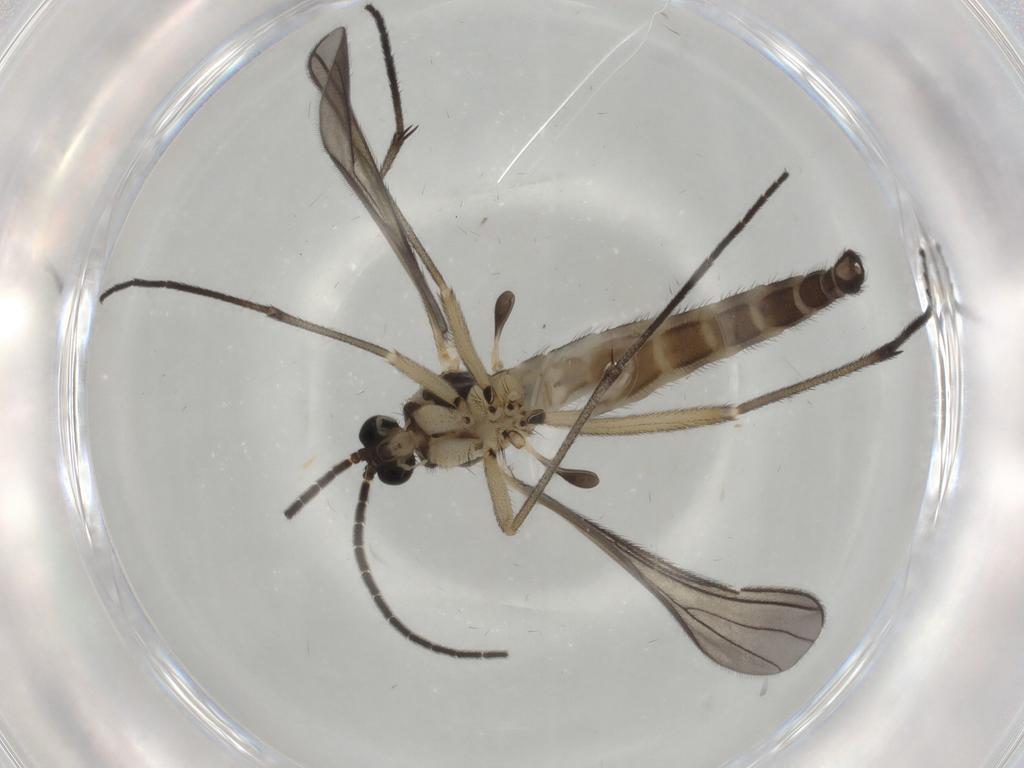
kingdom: Animalia
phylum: Arthropoda
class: Insecta
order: Diptera
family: Sciaridae
